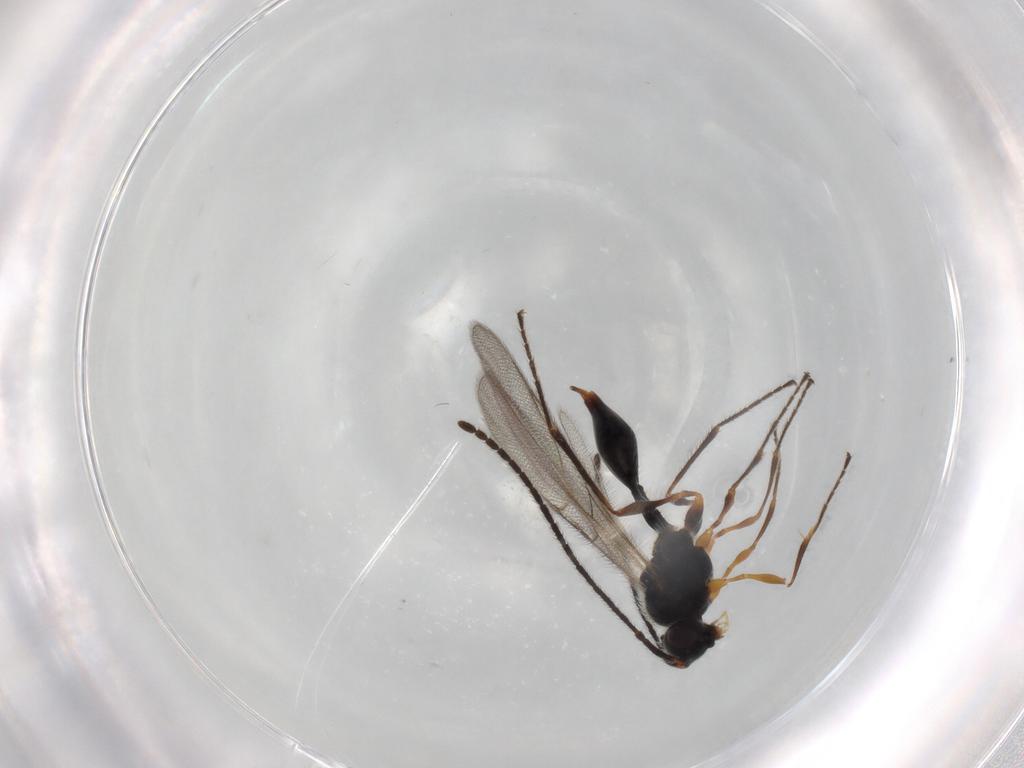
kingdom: Animalia
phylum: Arthropoda
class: Insecta
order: Hymenoptera
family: Diapriidae
